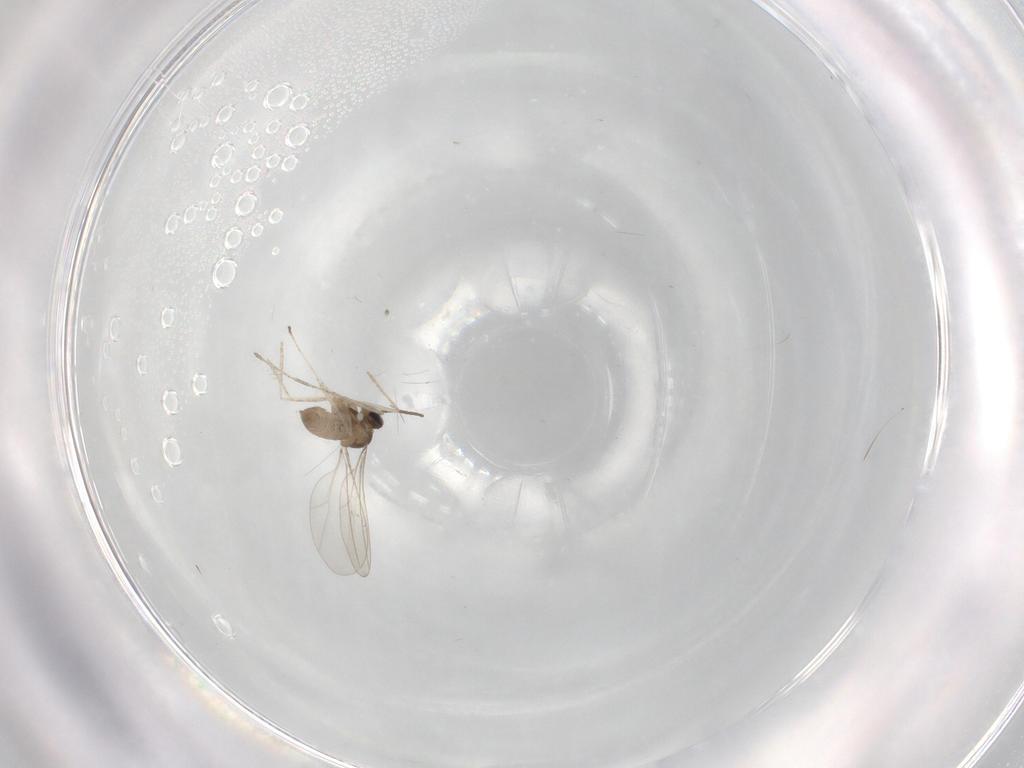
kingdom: Animalia
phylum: Arthropoda
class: Insecta
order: Diptera
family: Cecidomyiidae
